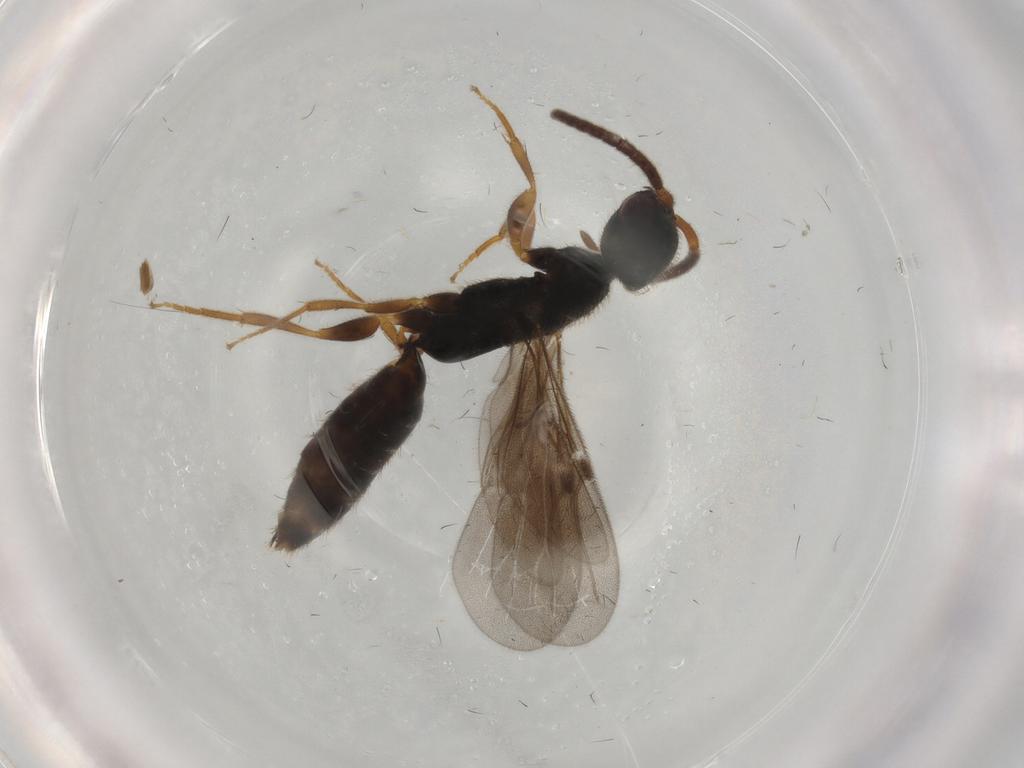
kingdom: Animalia
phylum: Arthropoda
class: Insecta
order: Hymenoptera
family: Bethylidae
